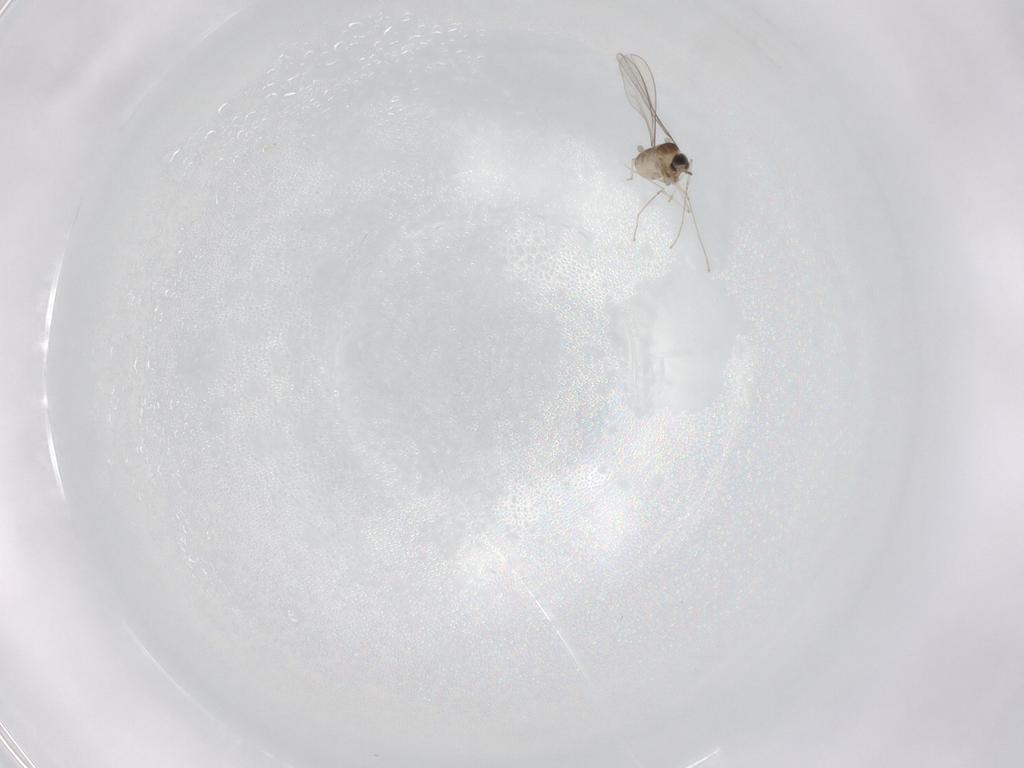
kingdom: Animalia
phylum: Arthropoda
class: Insecta
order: Diptera
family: Cecidomyiidae
